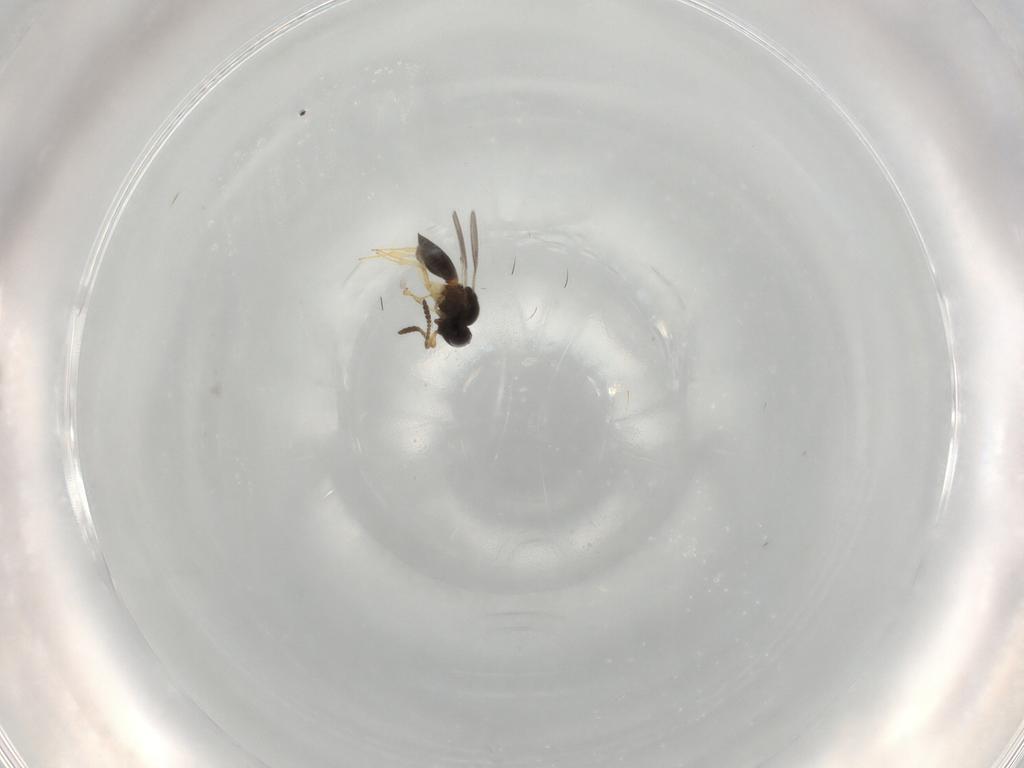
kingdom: Animalia
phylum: Arthropoda
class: Insecta
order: Hymenoptera
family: Scelionidae
